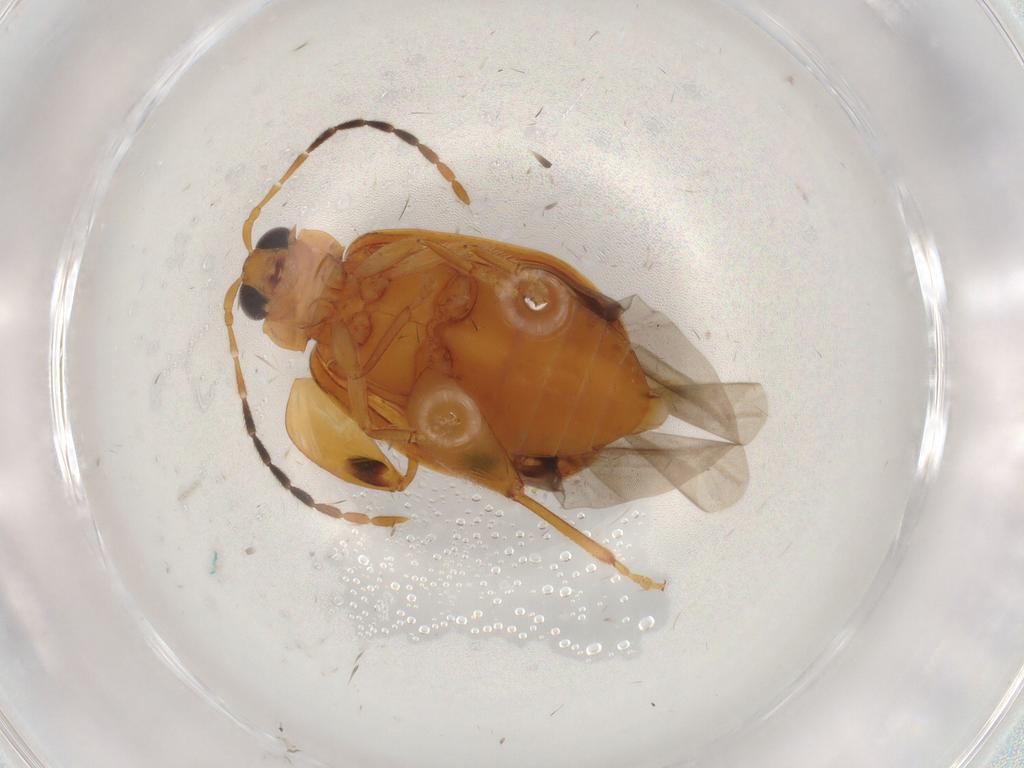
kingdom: Animalia
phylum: Arthropoda
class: Insecta
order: Coleoptera
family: Chrysomelidae
